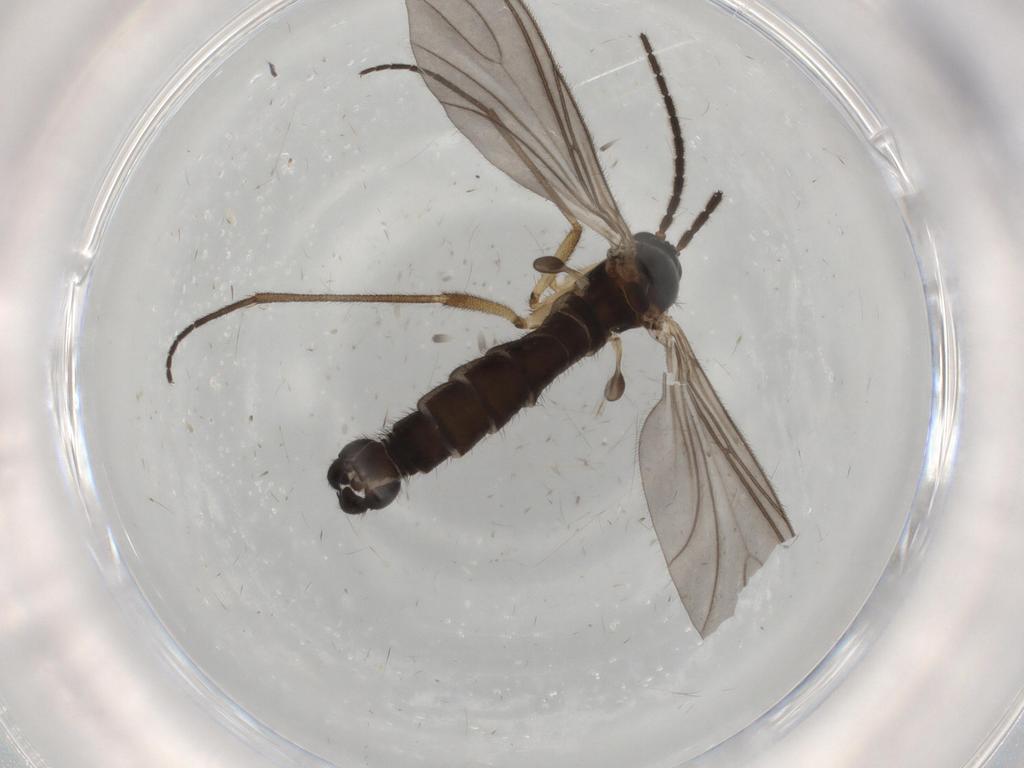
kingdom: Animalia
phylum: Arthropoda
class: Insecta
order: Diptera
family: Sciaridae
